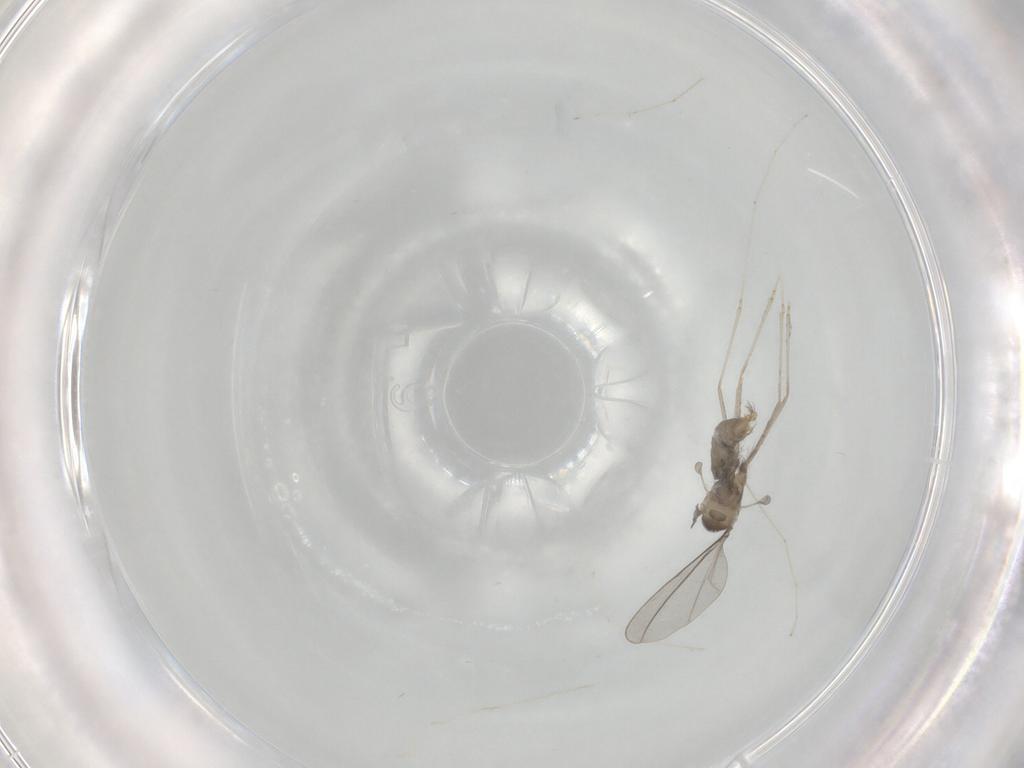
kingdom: Animalia
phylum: Arthropoda
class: Insecta
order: Diptera
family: Cecidomyiidae
